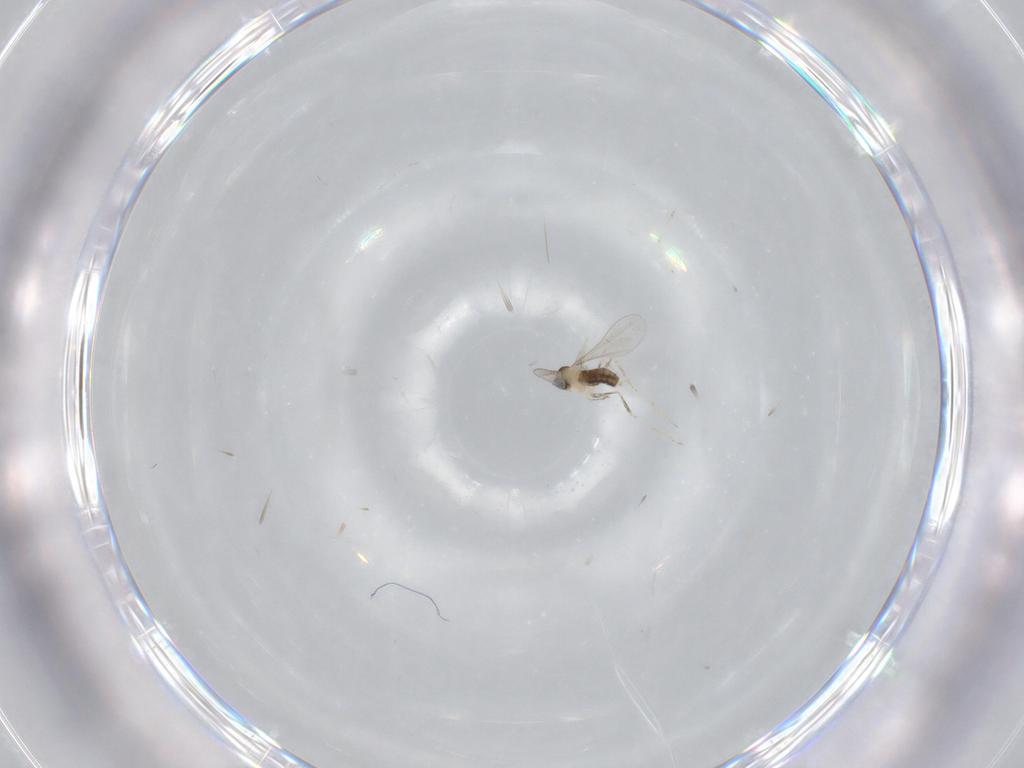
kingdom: Animalia
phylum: Arthropoda
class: Insecta
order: Diptera
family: Cecidomyiidae
